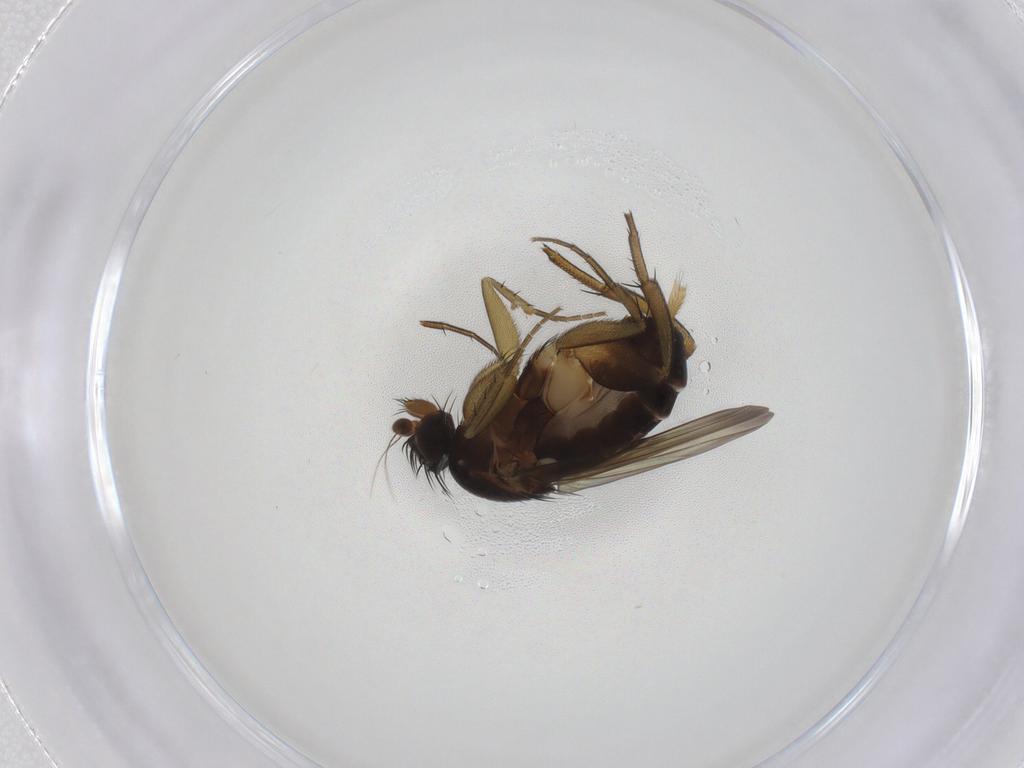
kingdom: Animalia
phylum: Arthropoda
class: Insecta
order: Diptera
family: Phoridae
